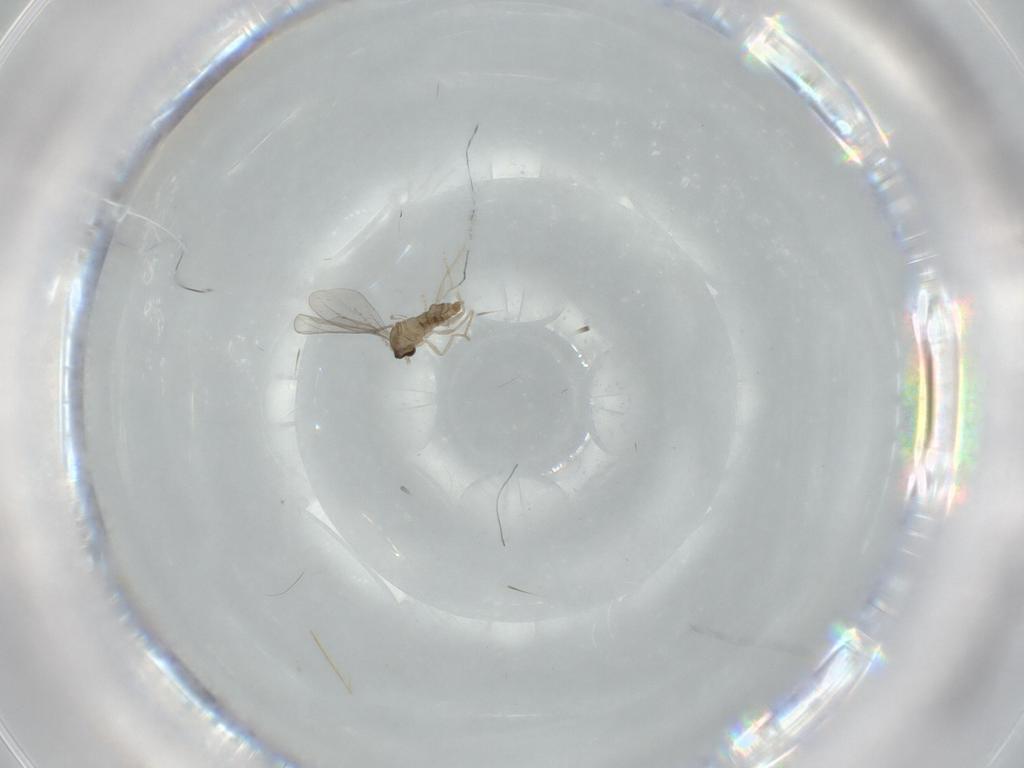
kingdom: Animalia
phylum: Arthropoda
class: Insecta
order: Diptera
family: Cecidomyiidae
